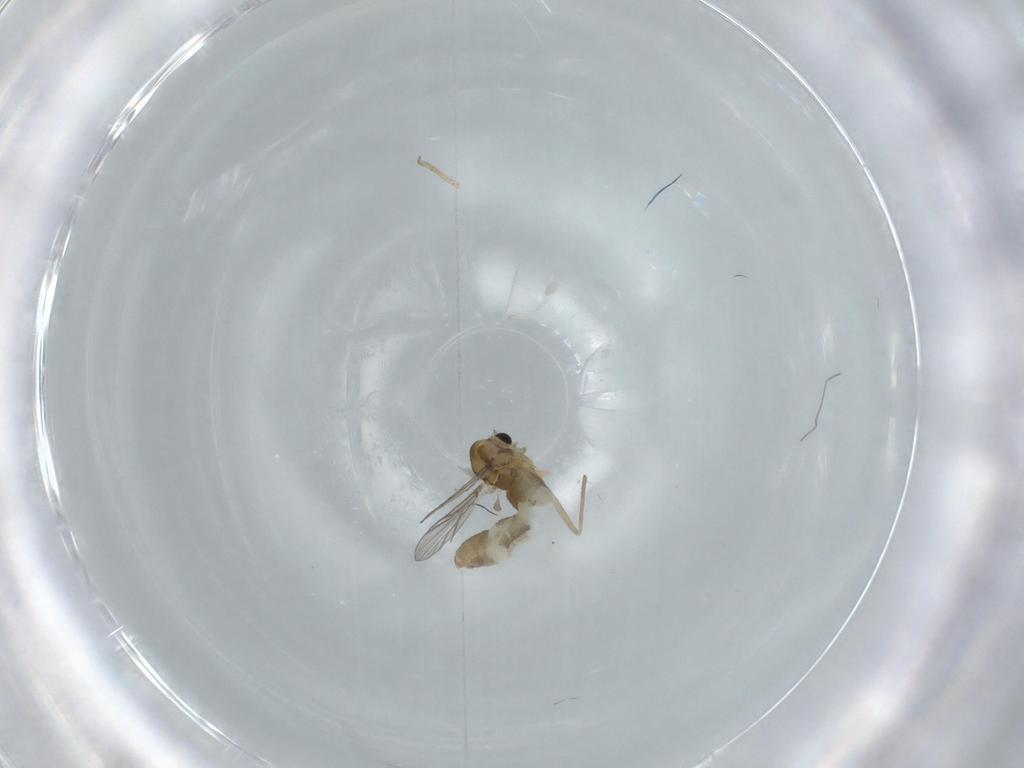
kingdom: Animalia
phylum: Arthropoda
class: Insecta
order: Diptera
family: Chironomidae
